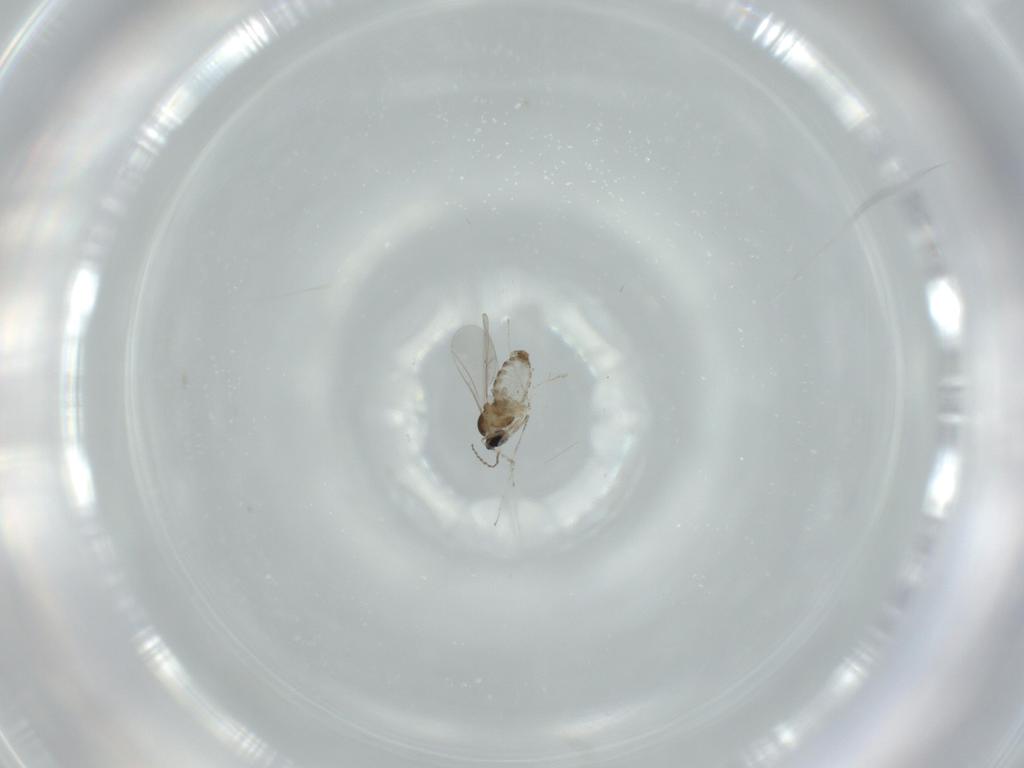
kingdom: Animalia
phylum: Arthropoda
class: Insecta
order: Diptera
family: Cecidomyiidae
